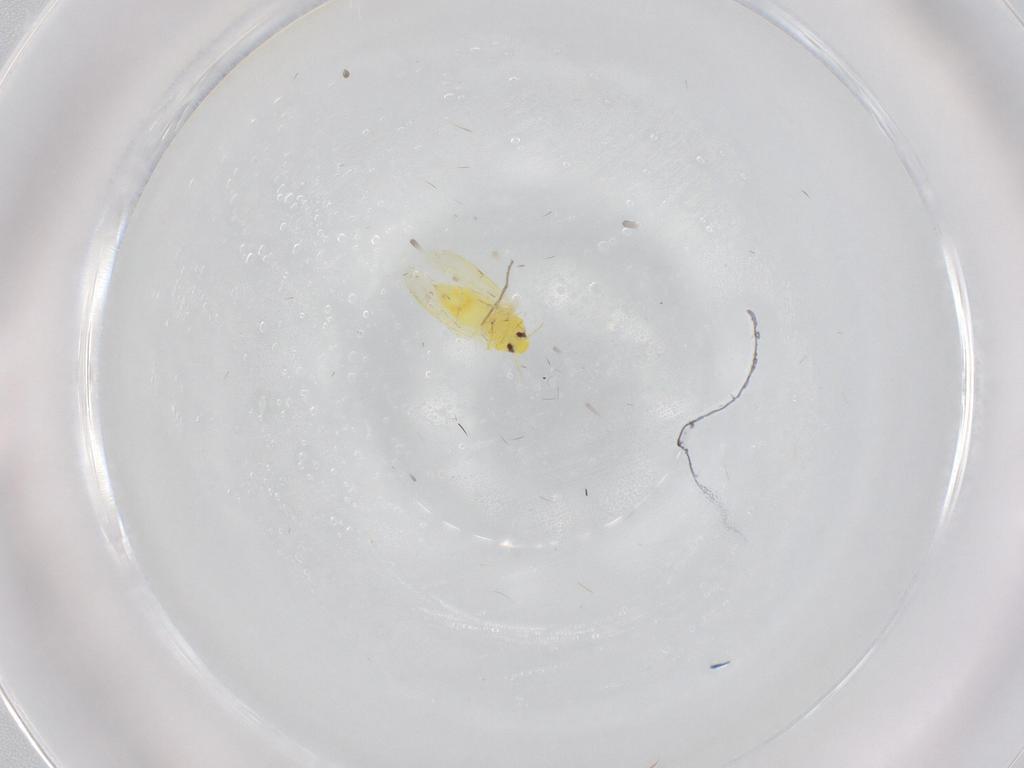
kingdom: Animalia
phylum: Arthropoda
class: Insecta
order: Hemiptera
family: Aleyrodidae
